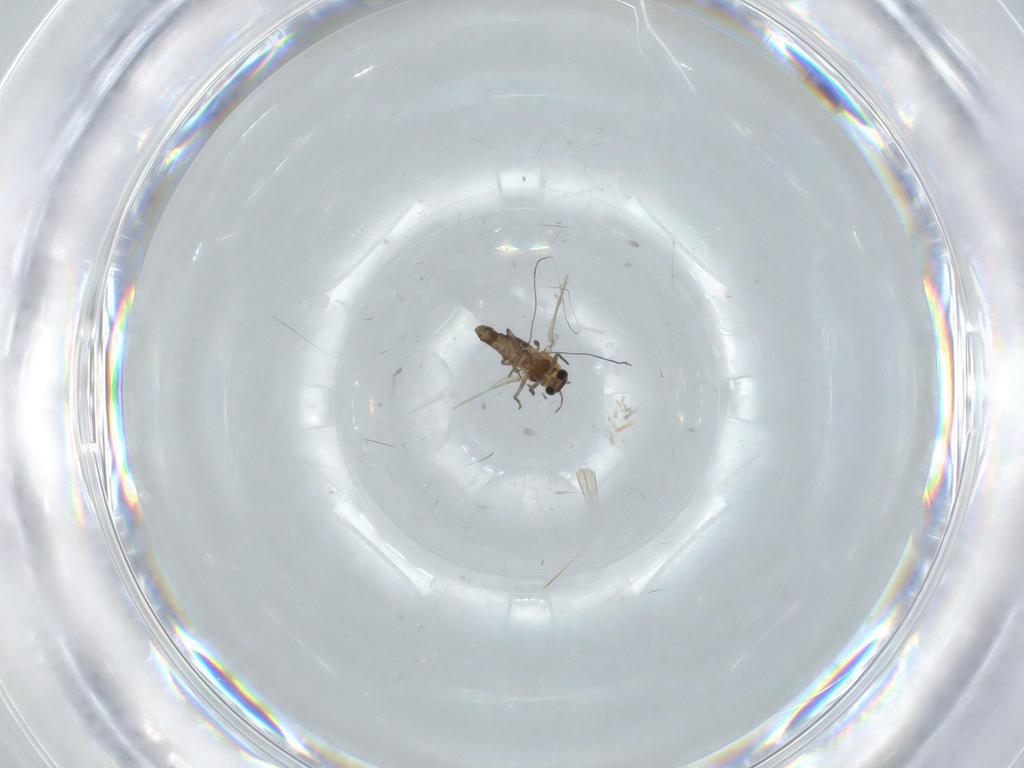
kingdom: Animalia
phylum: Arthropoda
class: Insecta
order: Diptera
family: Chironomidae
